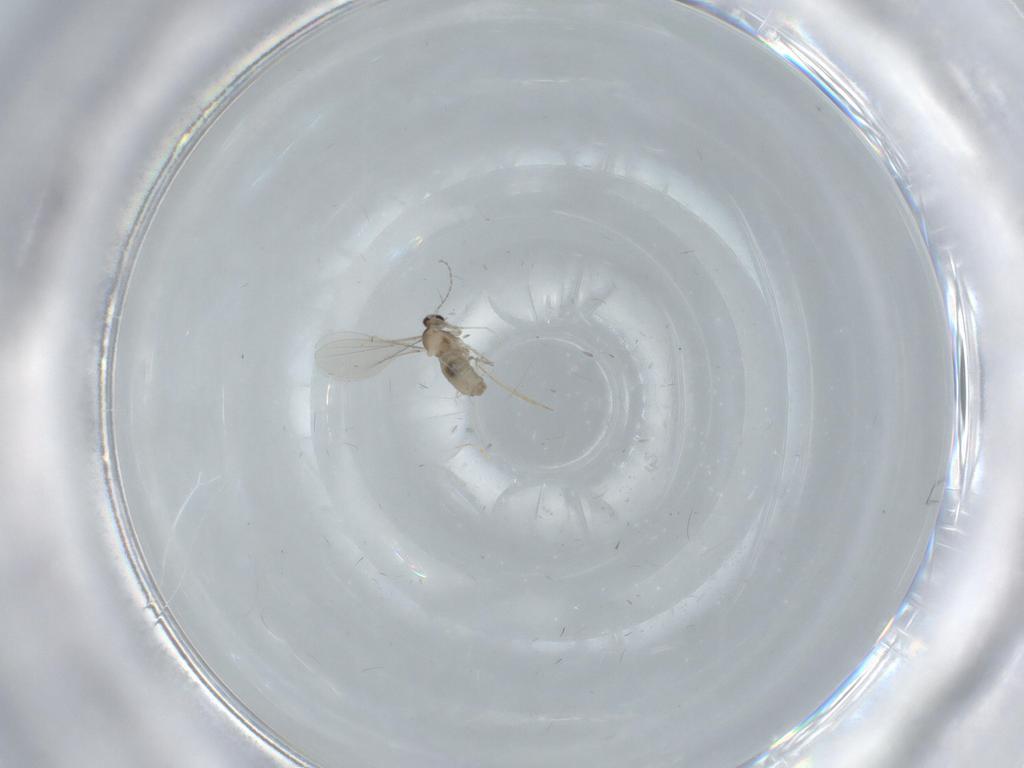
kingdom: Animalia
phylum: Arthropoda
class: Insecta
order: Diptera
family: Cecidomyiidae
